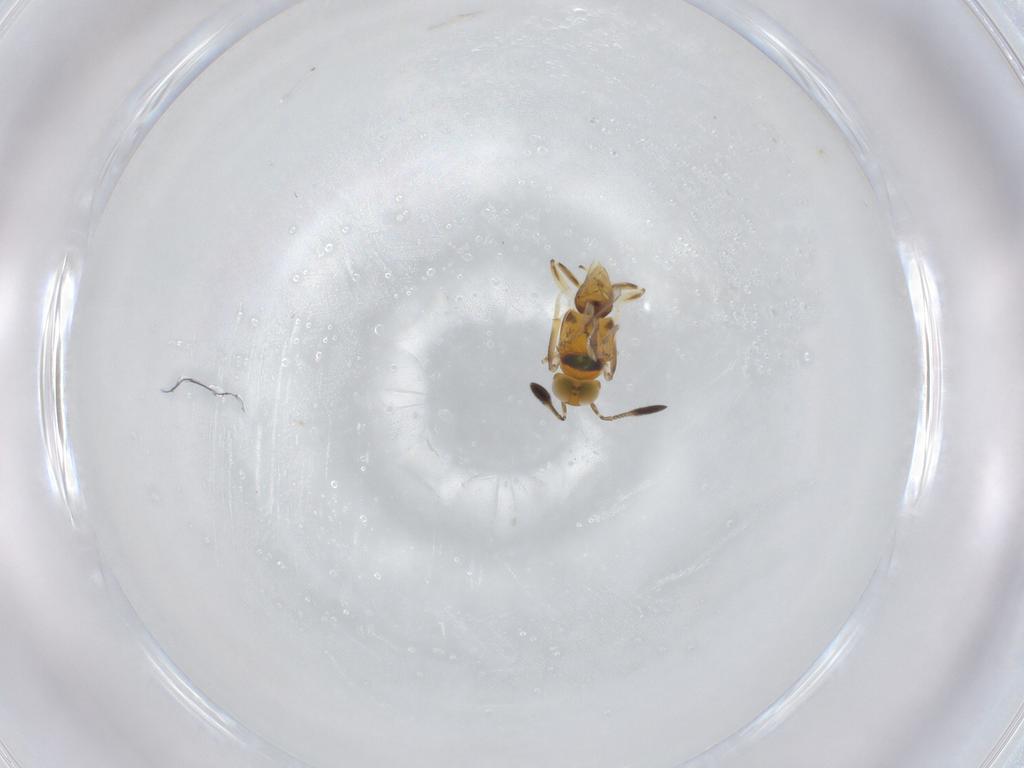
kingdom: Animalia
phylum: Arthropoda
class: Insecta
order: Hymenoptera
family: Encyrtidae
